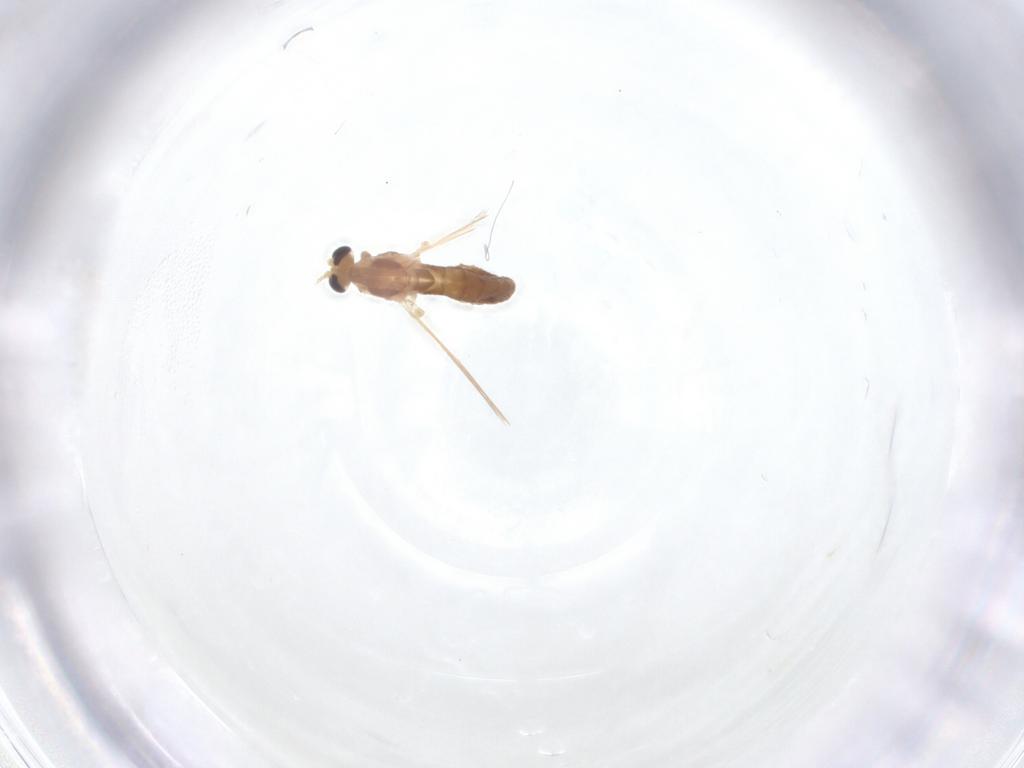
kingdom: Animalia
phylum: Arthropoda
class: Insecta
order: Diptera
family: Chironomidae
